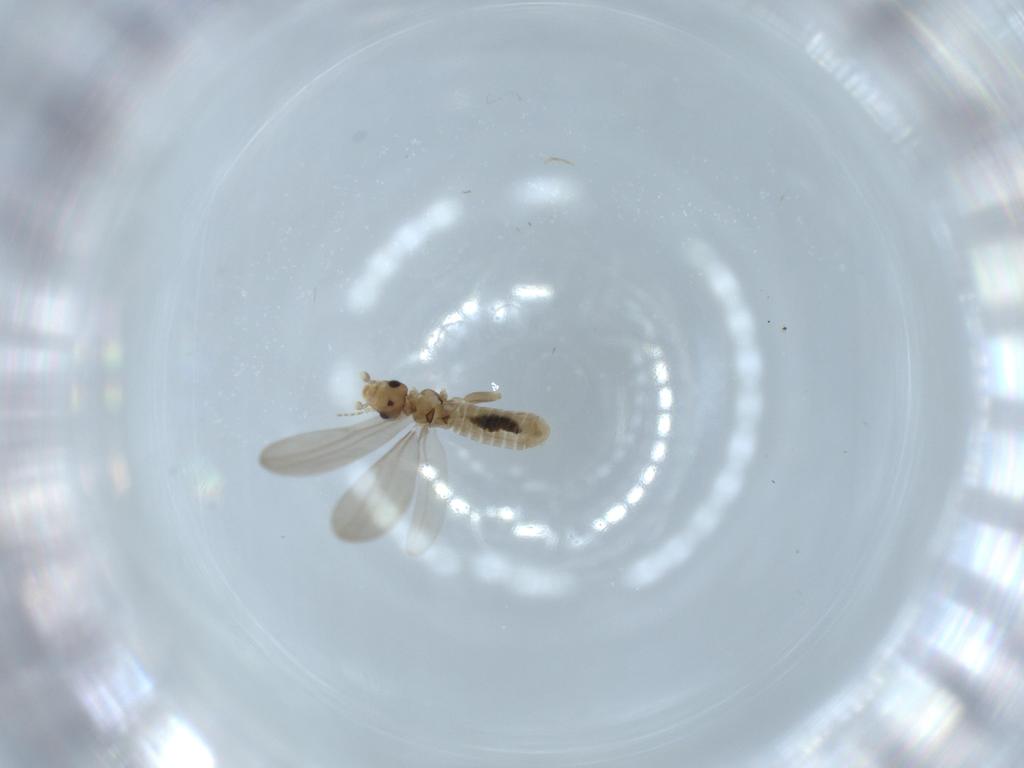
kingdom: Animalia
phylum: Arthropoda
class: Insecta
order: Psocodea
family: Liposcelididae
